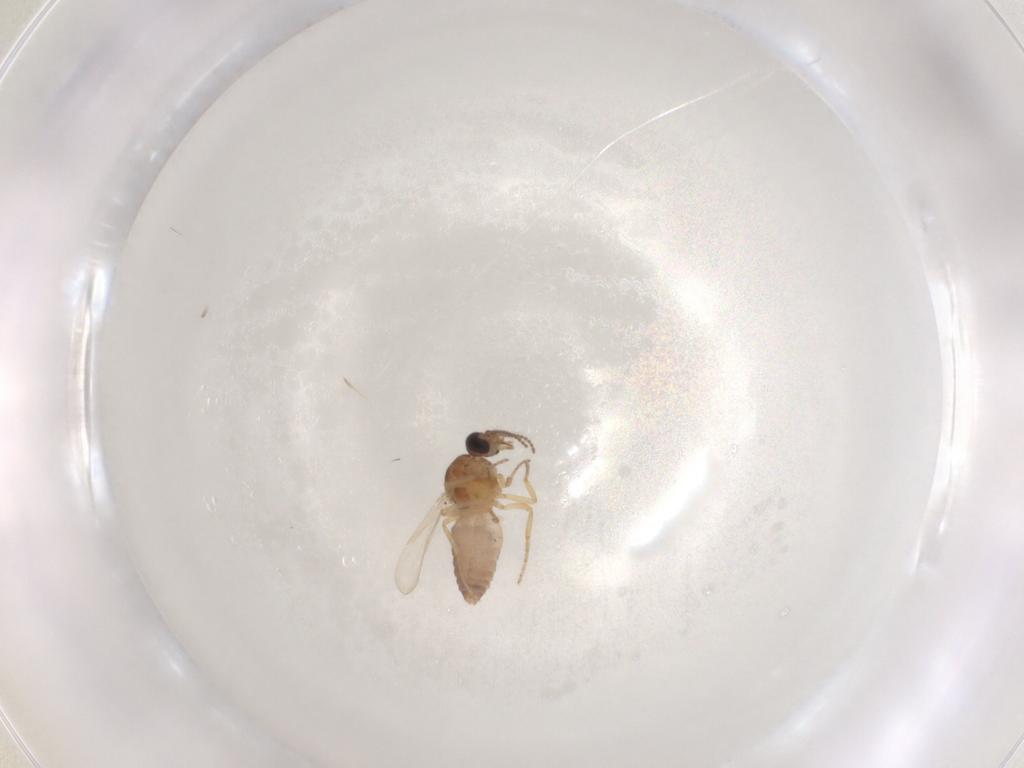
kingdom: Animalia
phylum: Arthropoda
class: Insecta
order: Diptera
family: Ceratopogonidae
